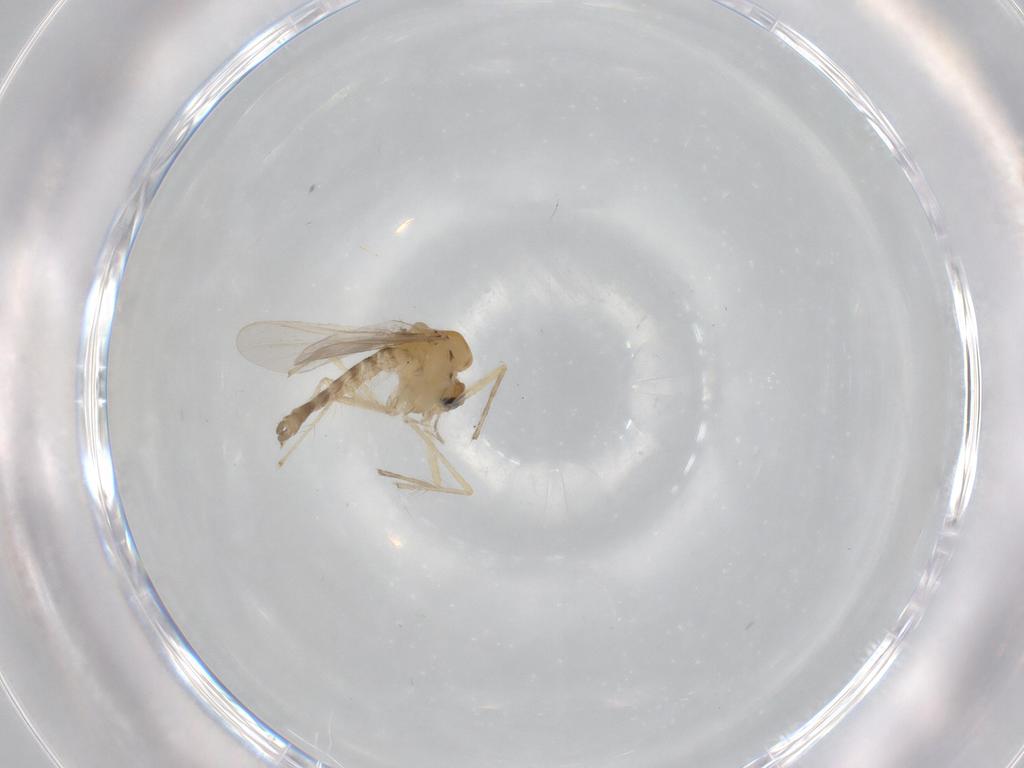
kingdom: Animalia
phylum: Arthropoda
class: Insecta
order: Diptera
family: Chironomidae
